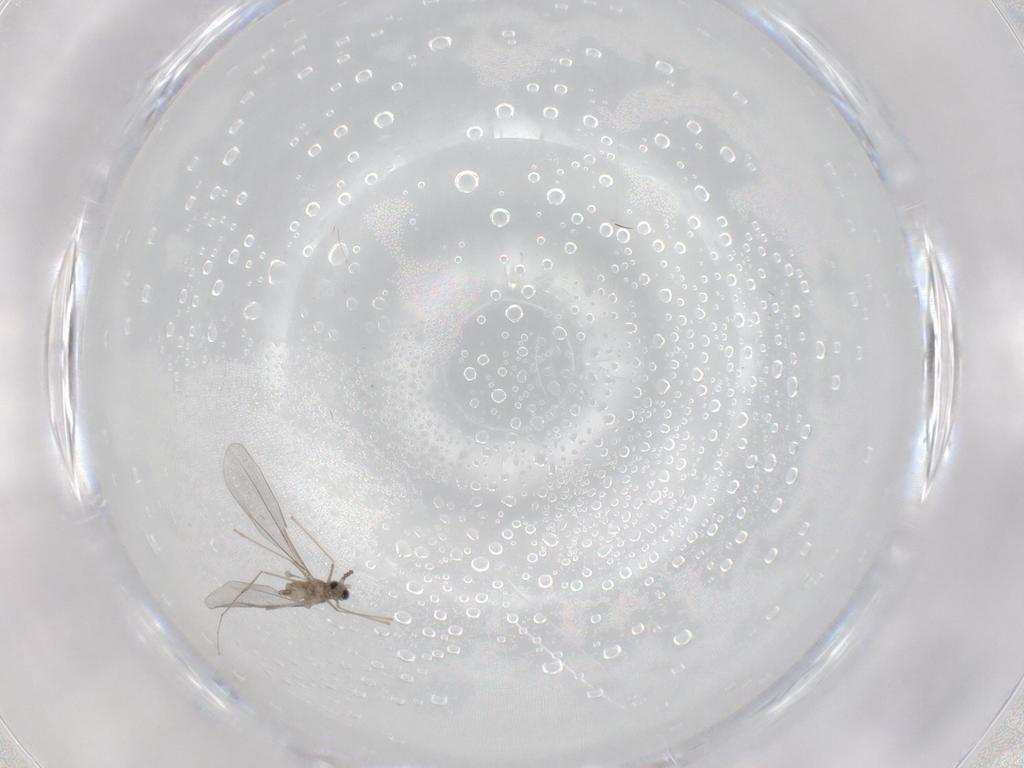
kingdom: Animalia
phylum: Arthropoda
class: Insecta
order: Diptera
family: Cecidomyiidae
